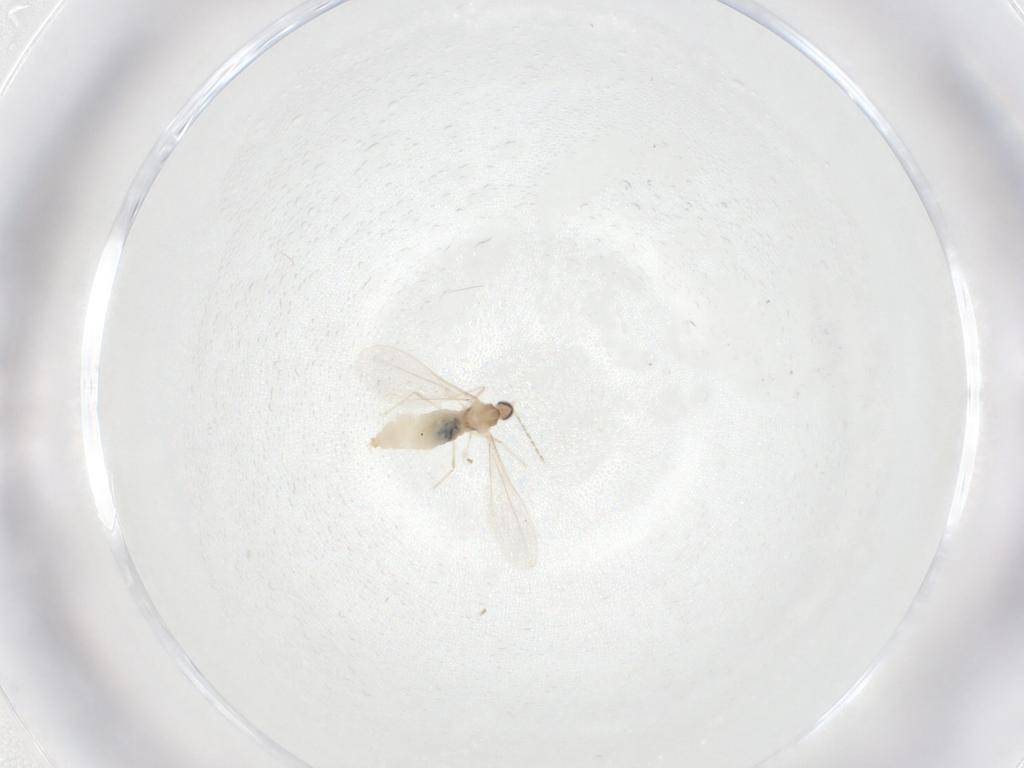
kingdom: Animalia
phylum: Arthropoda
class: Insecta
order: Diptera
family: Cecidomyiidae
